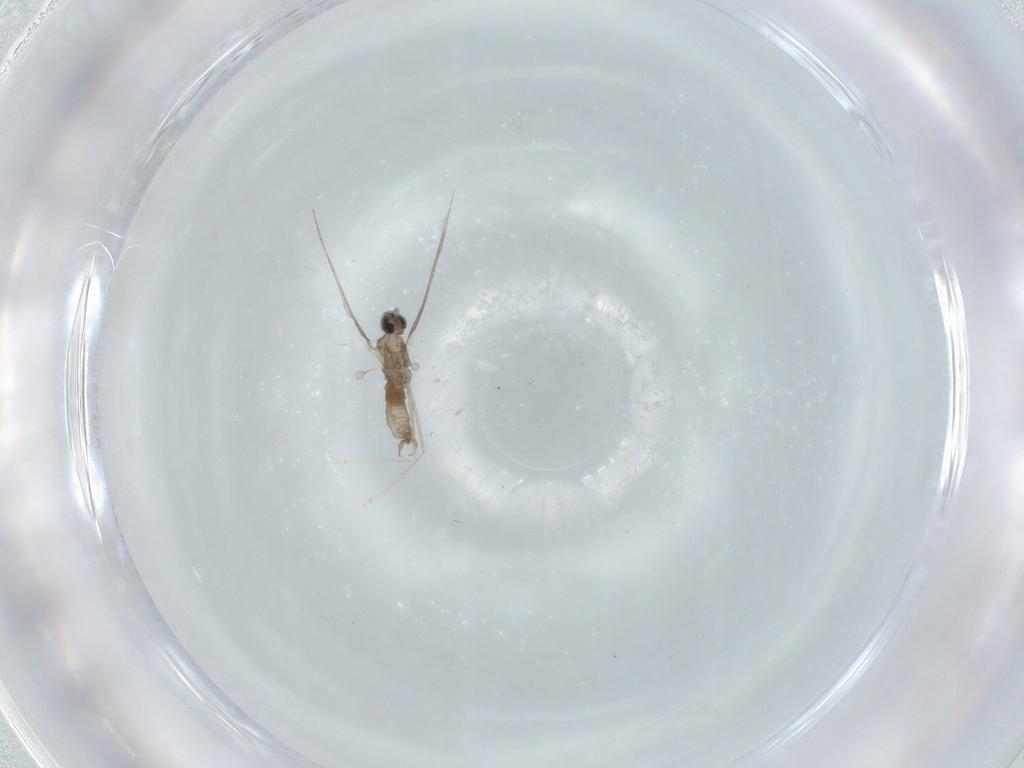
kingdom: Animalia
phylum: Arthropoda
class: Insecta
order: Diptera
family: Cecidomyiidae
